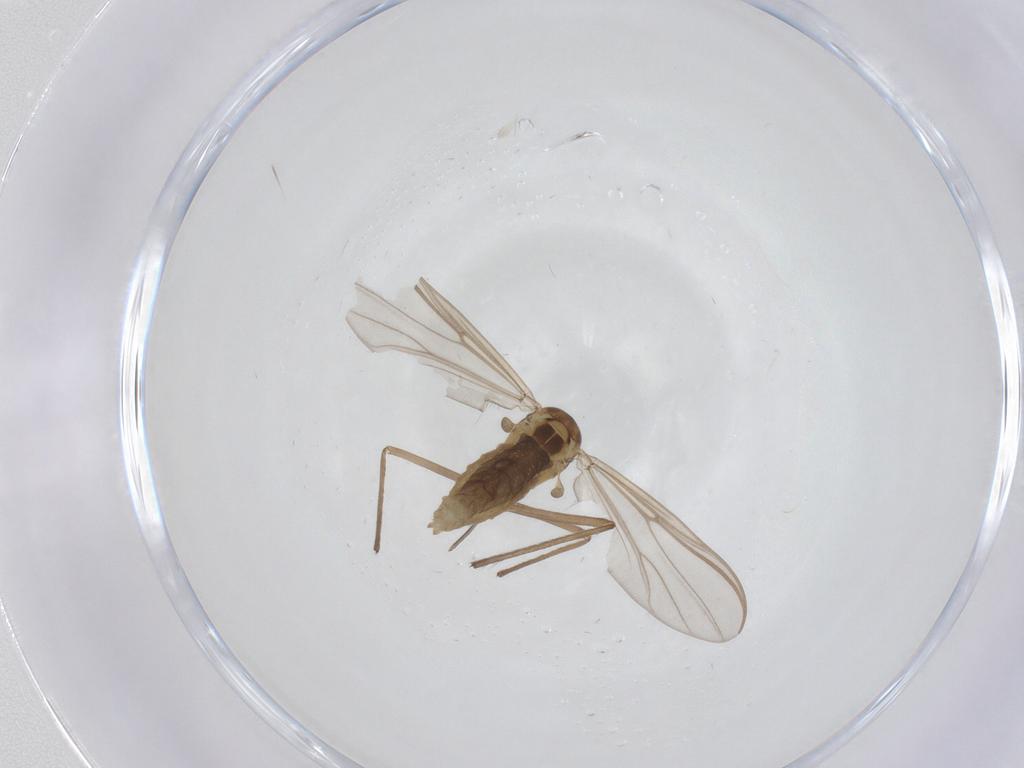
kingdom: Animalia
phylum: Arthropoda
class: Insecta
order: Diptera
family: Chironomidae
